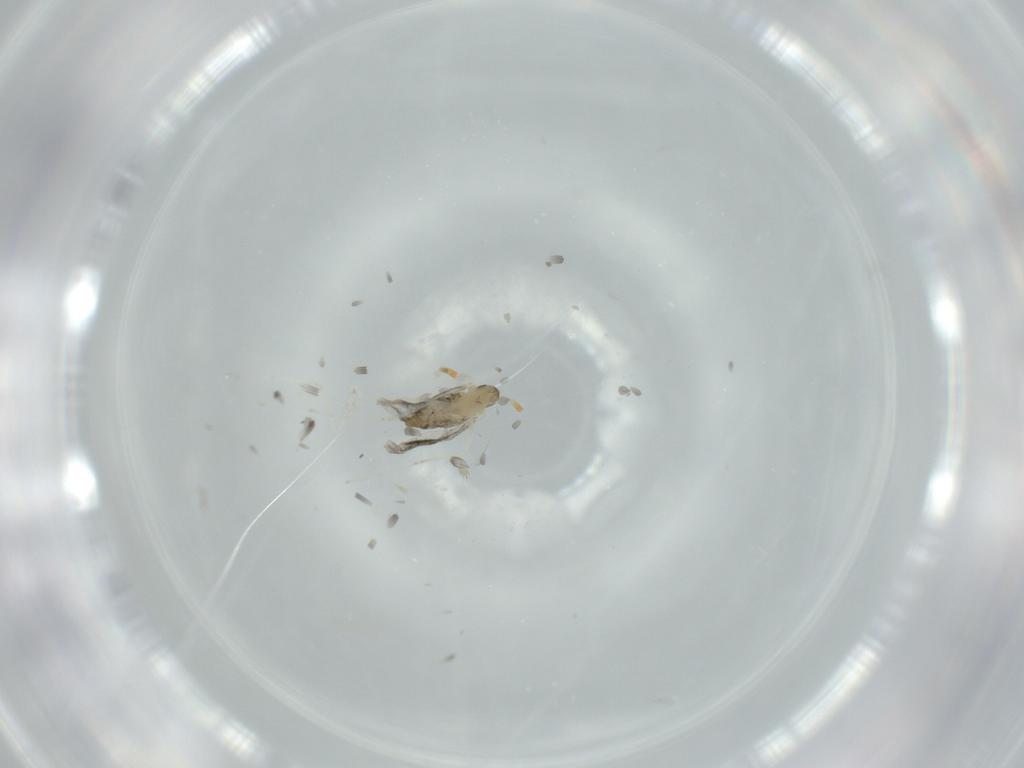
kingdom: Animalia
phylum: Arthropoda
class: Insecta
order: Diptera
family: Cecidomyiidae
